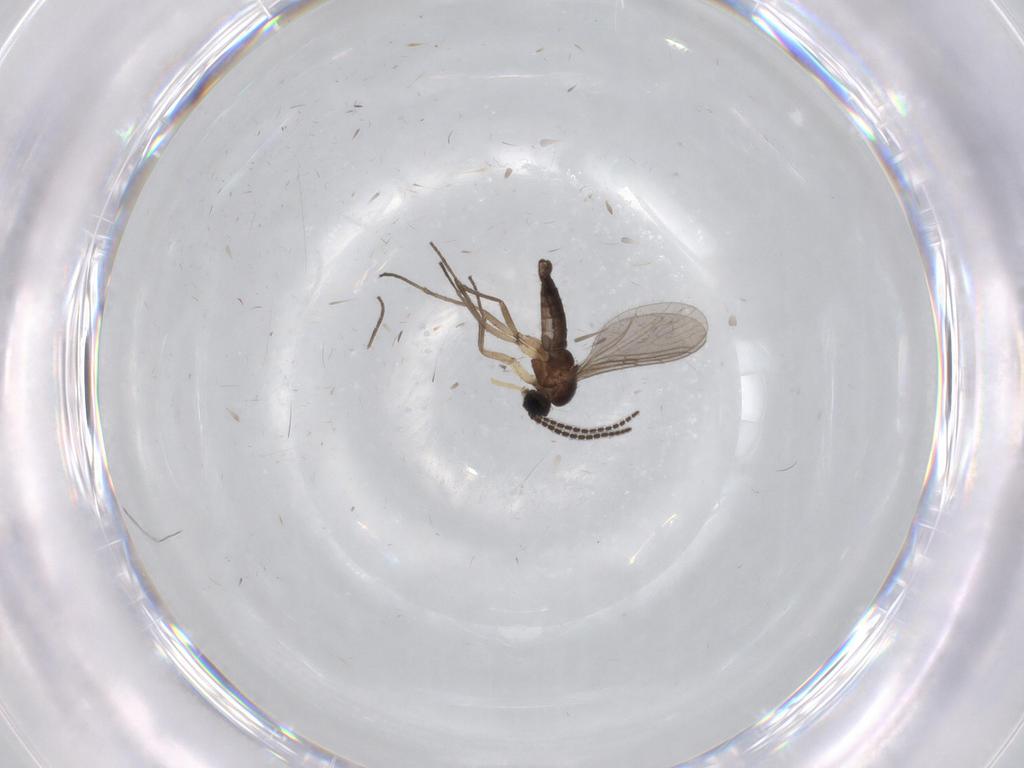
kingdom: Animalia
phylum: Arthropoda
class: Insecta
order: Diptera
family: Sciaridae
